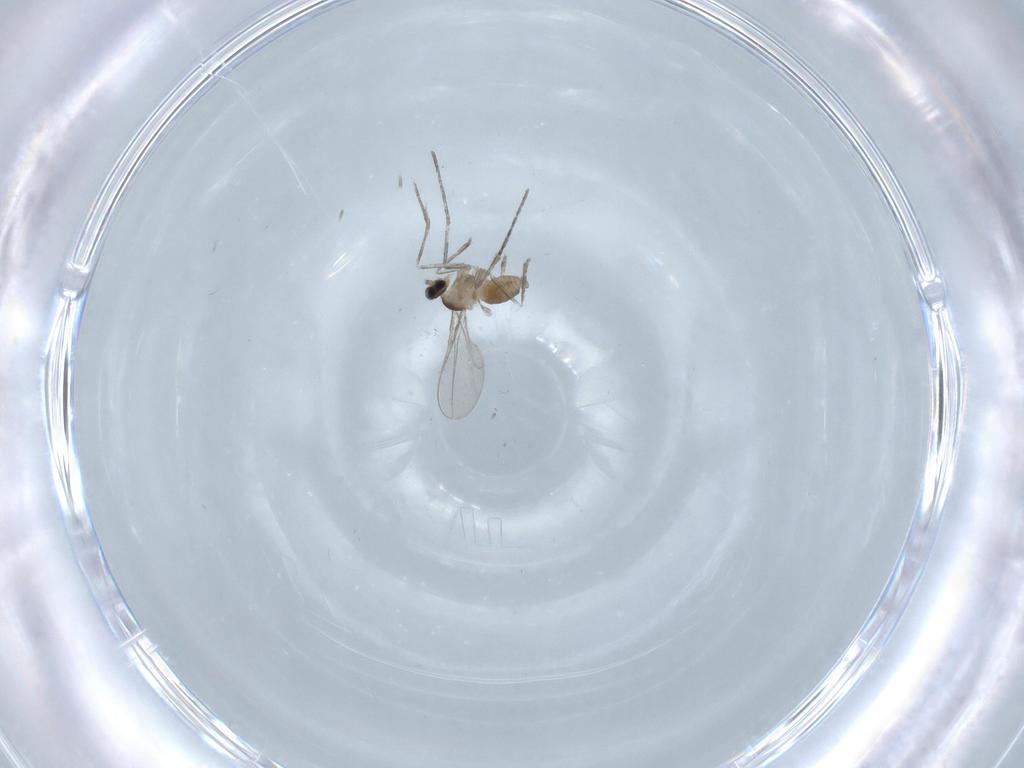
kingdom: Animalia
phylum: Arthropoda
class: Insecta
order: Diptera
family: Cecidomyiidae
